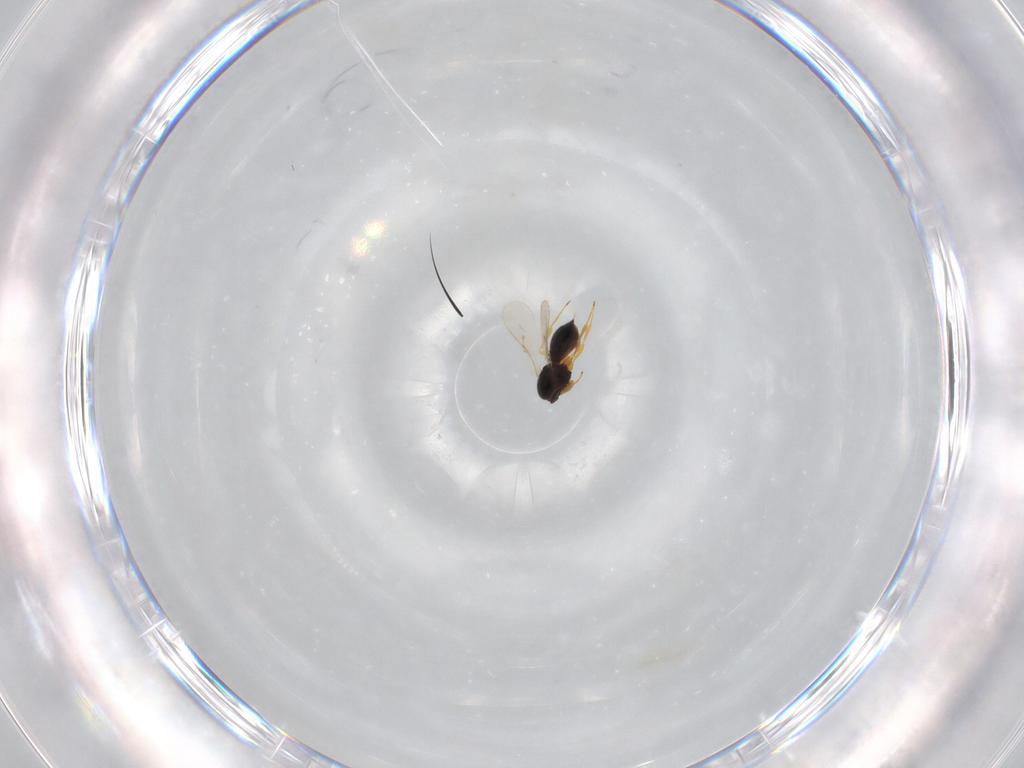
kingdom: Animalia
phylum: Arthropoda
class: Insecta
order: Hymenoptera
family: Scelionidae
